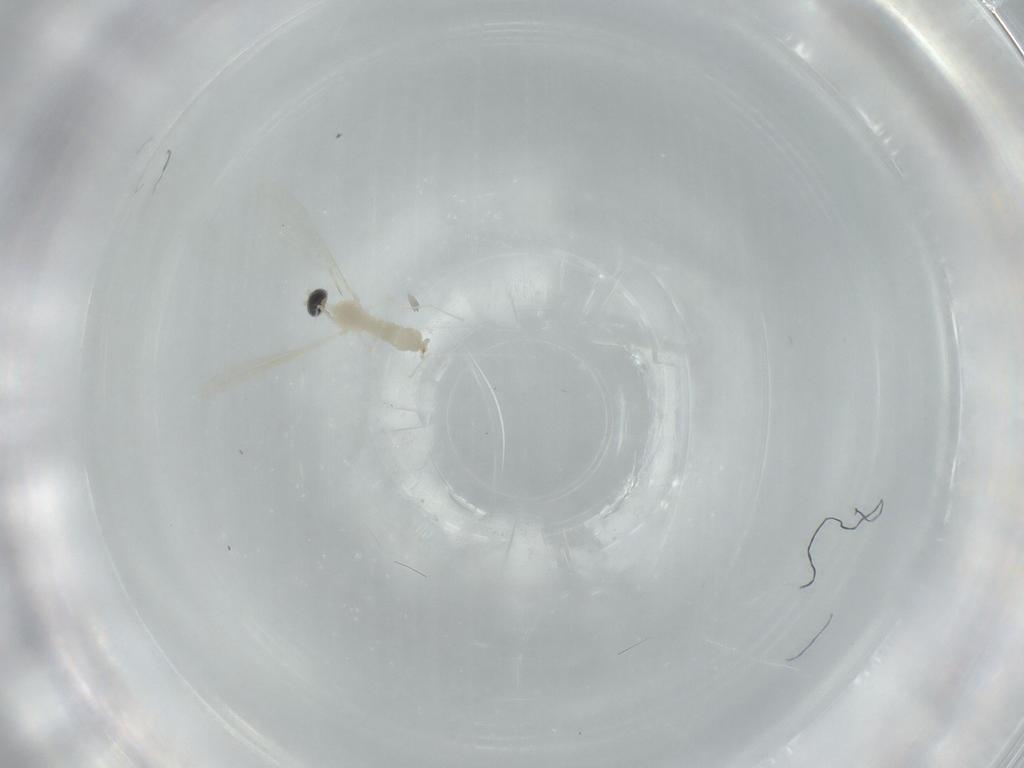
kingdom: Animalia
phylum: Arthropoda
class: Insecta
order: Diptera
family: Cecidomyiidae
